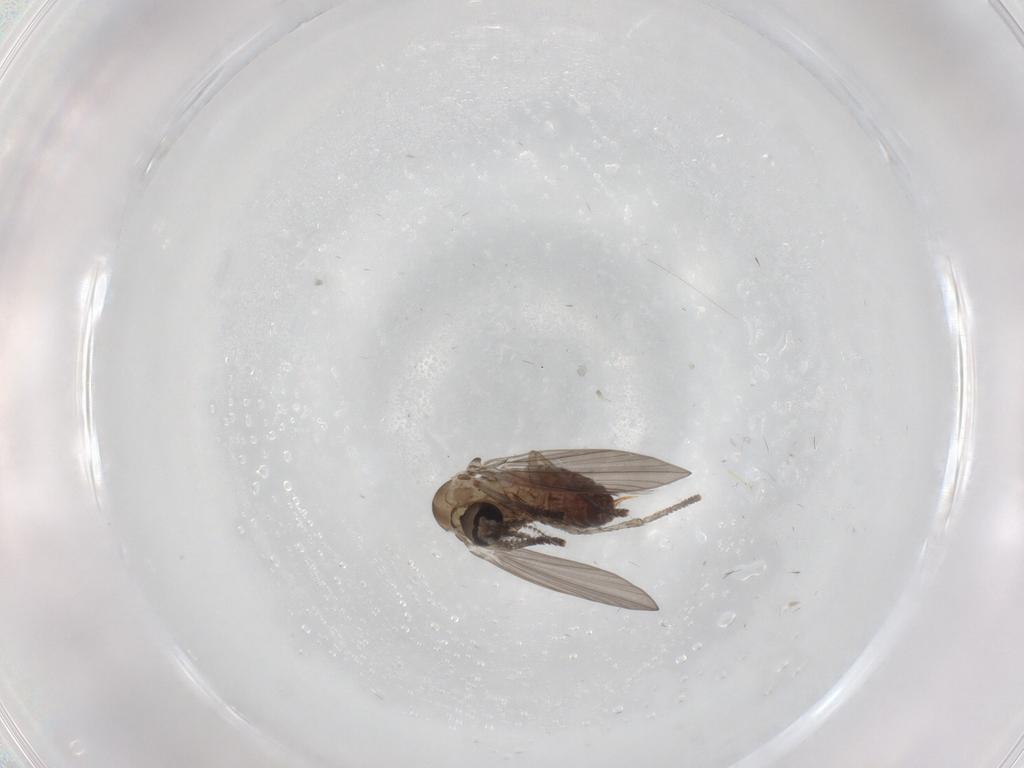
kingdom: Animalia
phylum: Arthropoda
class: Insecta
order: Diptera
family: Psychodidae
